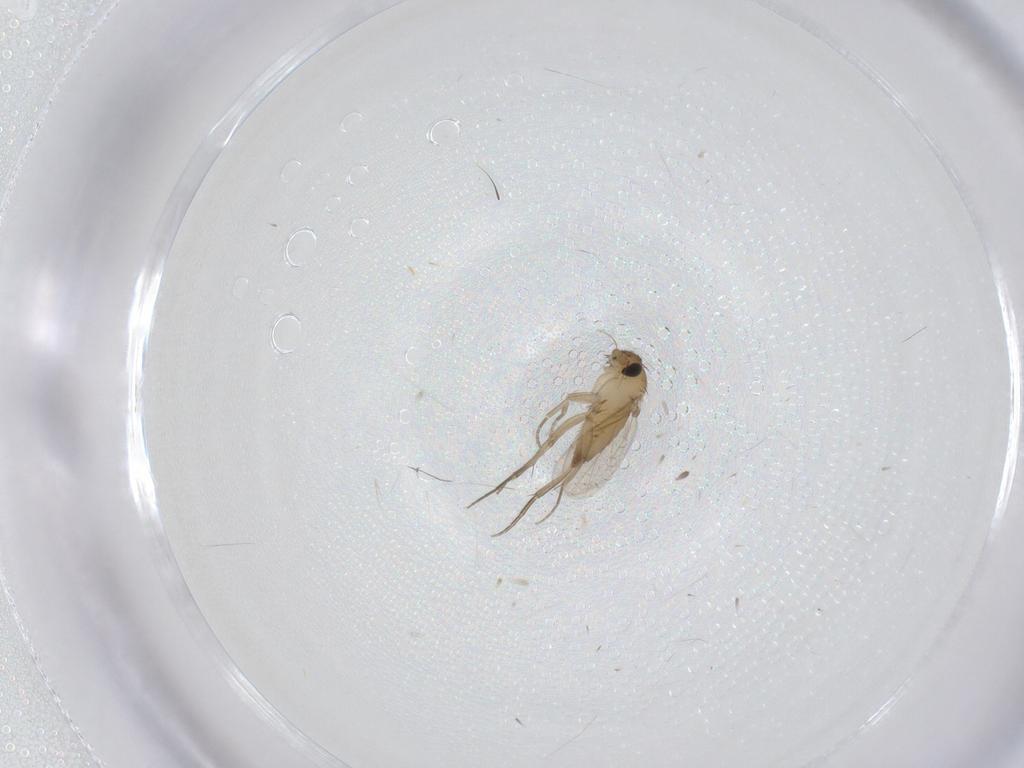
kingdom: Animalia
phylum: Arthropoda
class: Insecta
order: Diptera
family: Phoridae
